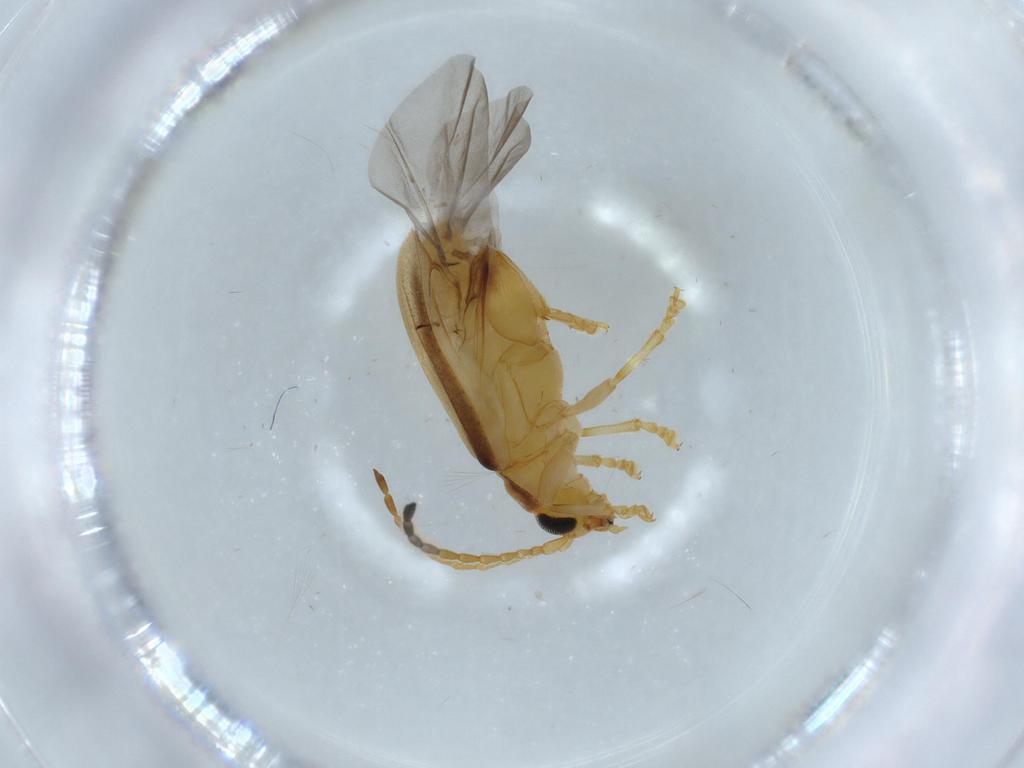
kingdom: Animalia
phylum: Arthropoda
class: Insecta
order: Coleoptera
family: Chrysomelidae
